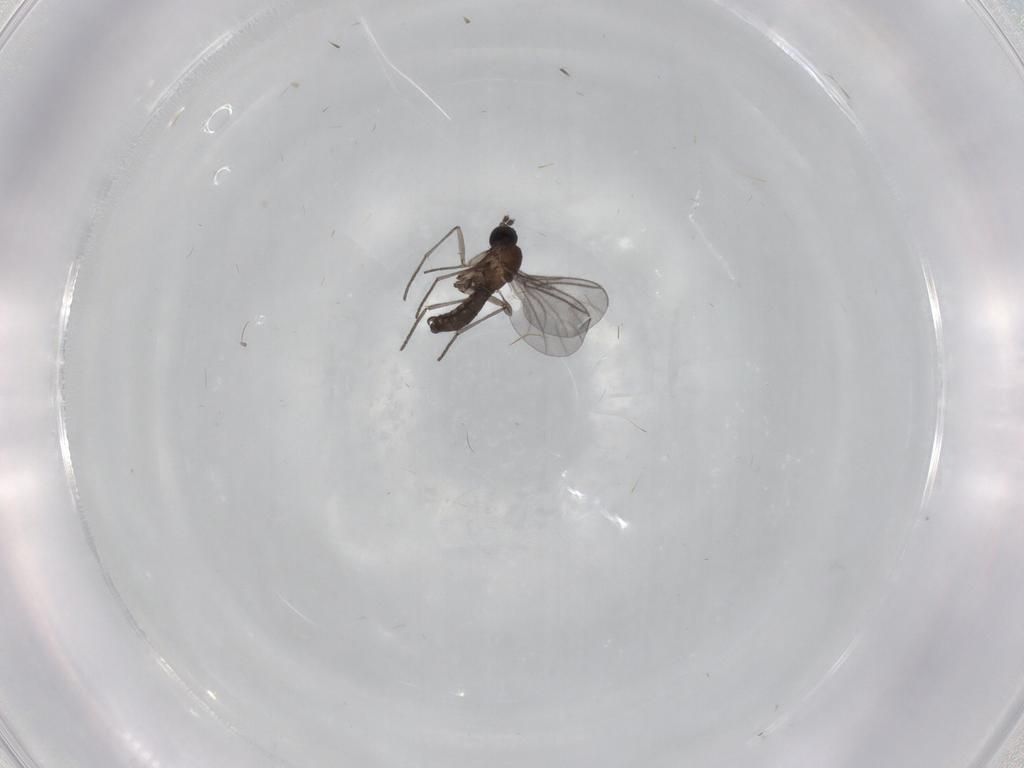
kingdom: Animalia
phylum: Arthropoda
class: Insecta
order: Diptera
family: Sciaridae
